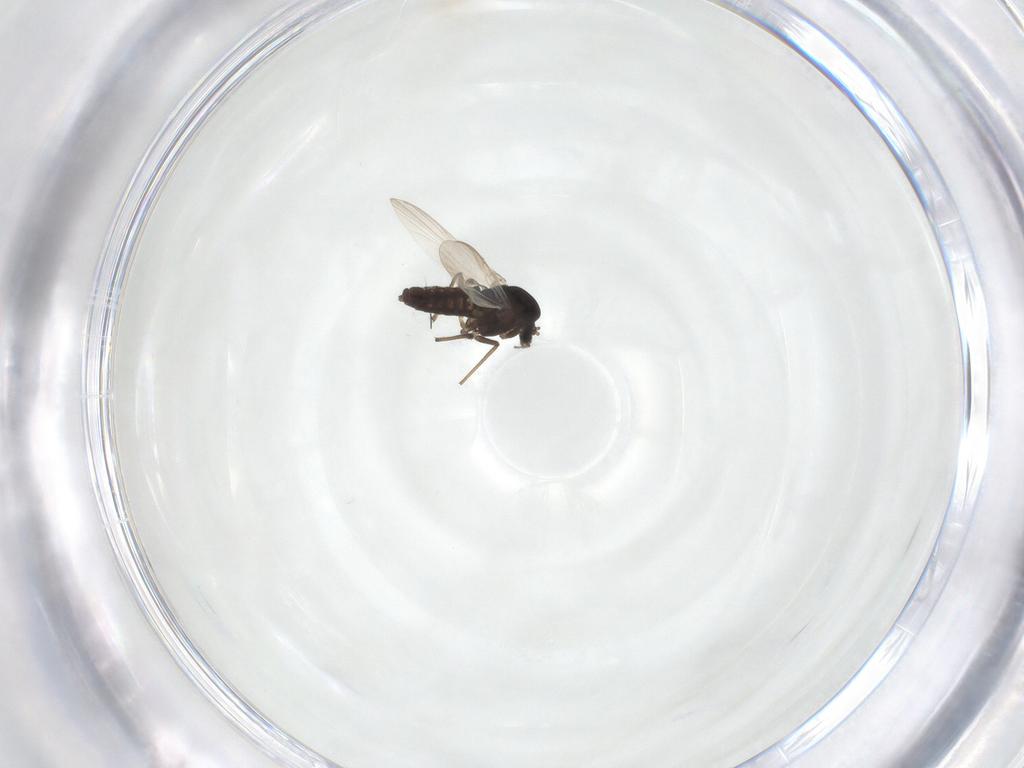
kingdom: Animalia
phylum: Arthropoda
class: Insecta
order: Diptera
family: Chironomidae
